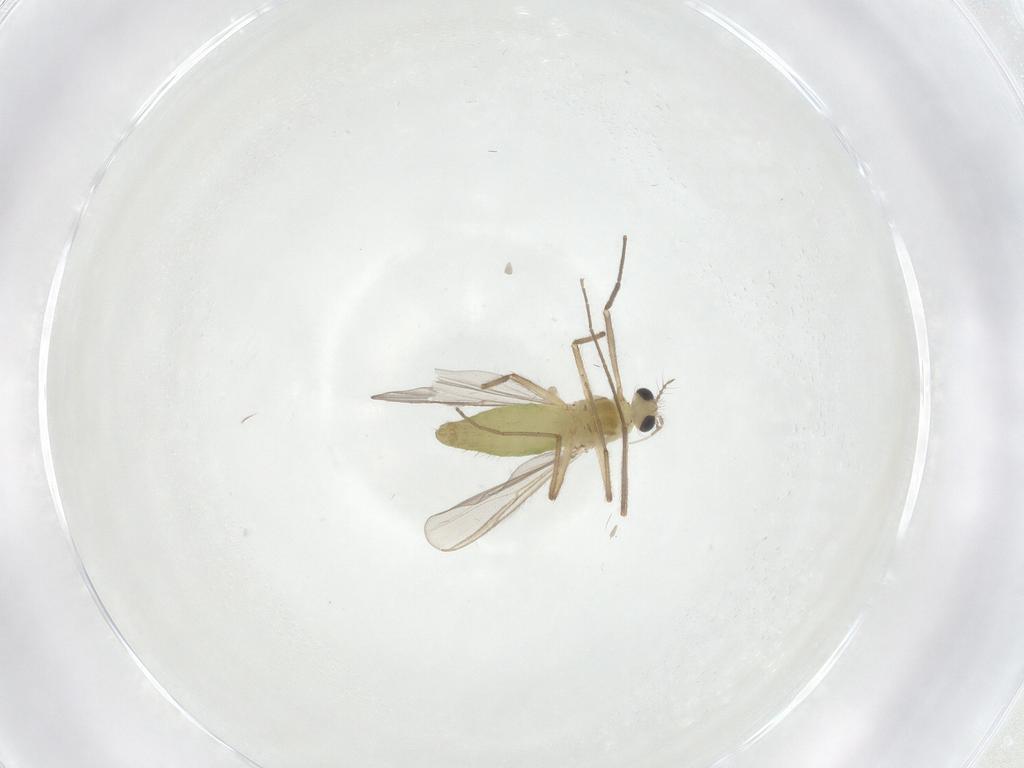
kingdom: Animalia
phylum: Arthropoda
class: Insecta
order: Diptera
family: Chironomidae
